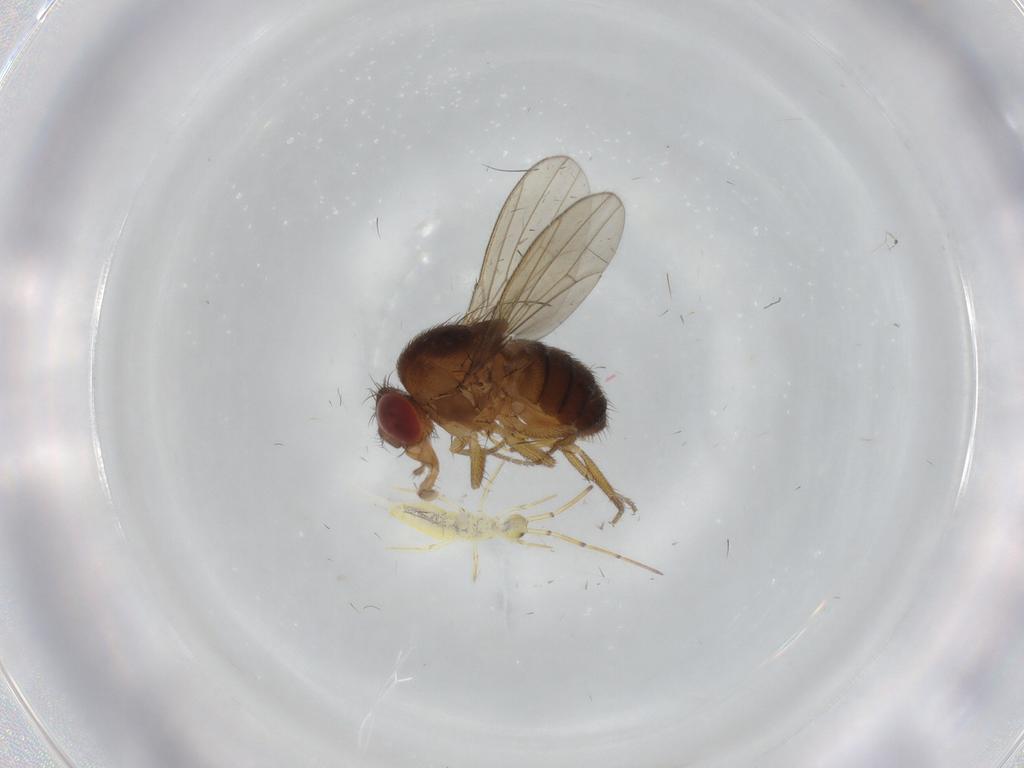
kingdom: Animalia
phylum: Arthropoda
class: Insecta
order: Diptera
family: Drosophilidae
